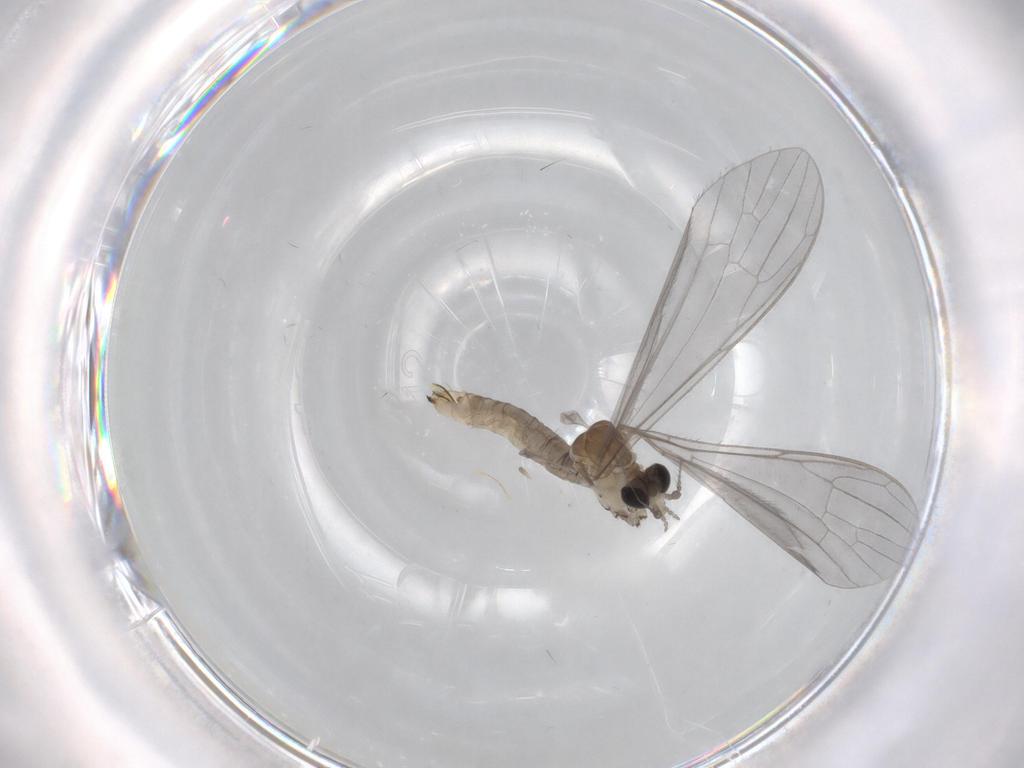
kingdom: Animalia
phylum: Arthropoda
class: Insecta
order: Diptera
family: Limoniidae
